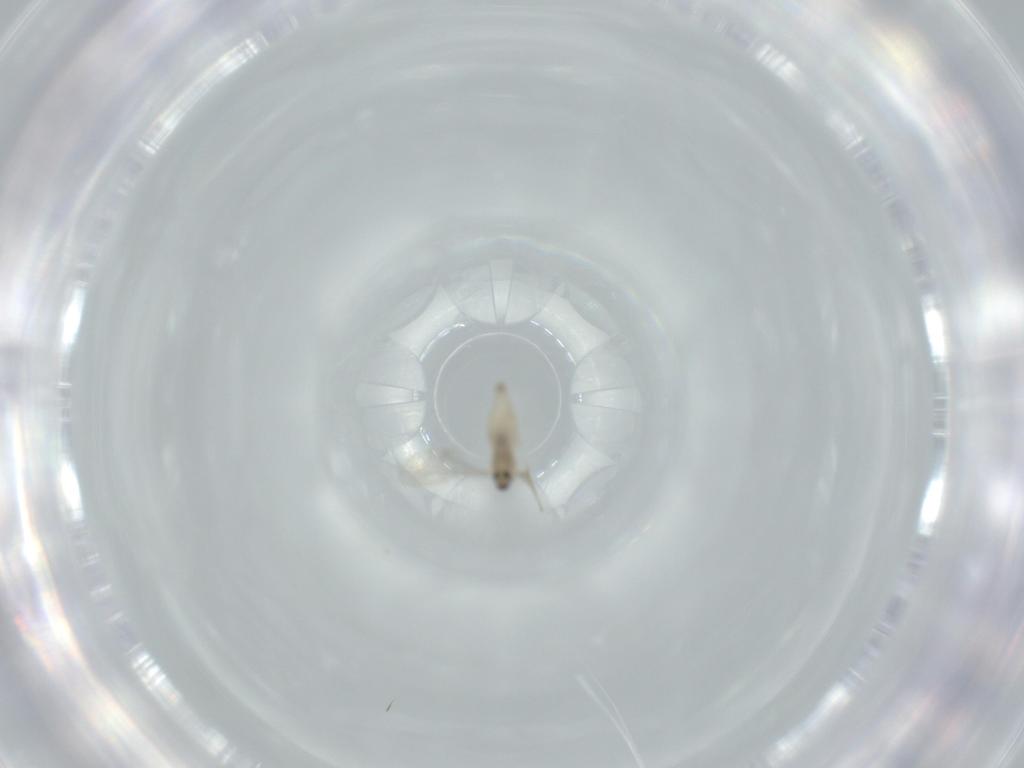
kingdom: Animalia
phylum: Arthropoda
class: Insecta
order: Diptera
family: Cecidomyiidae
